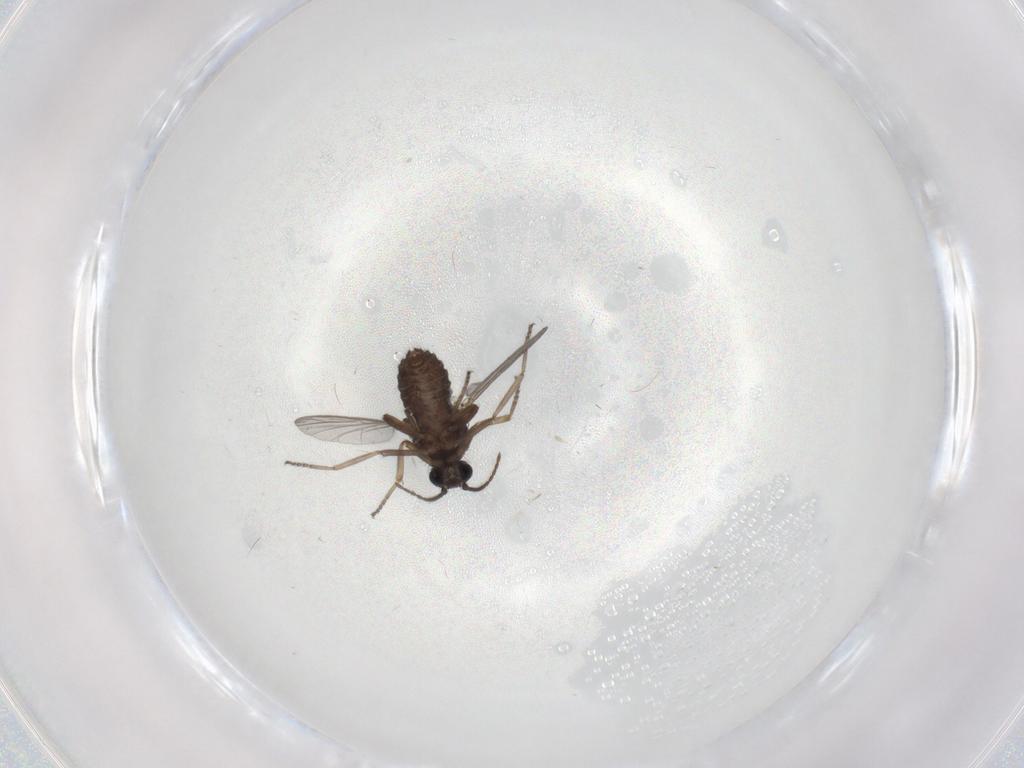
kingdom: Animalia
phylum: Arthropoda
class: Insecta
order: Diptera
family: Ceratopogonidae
